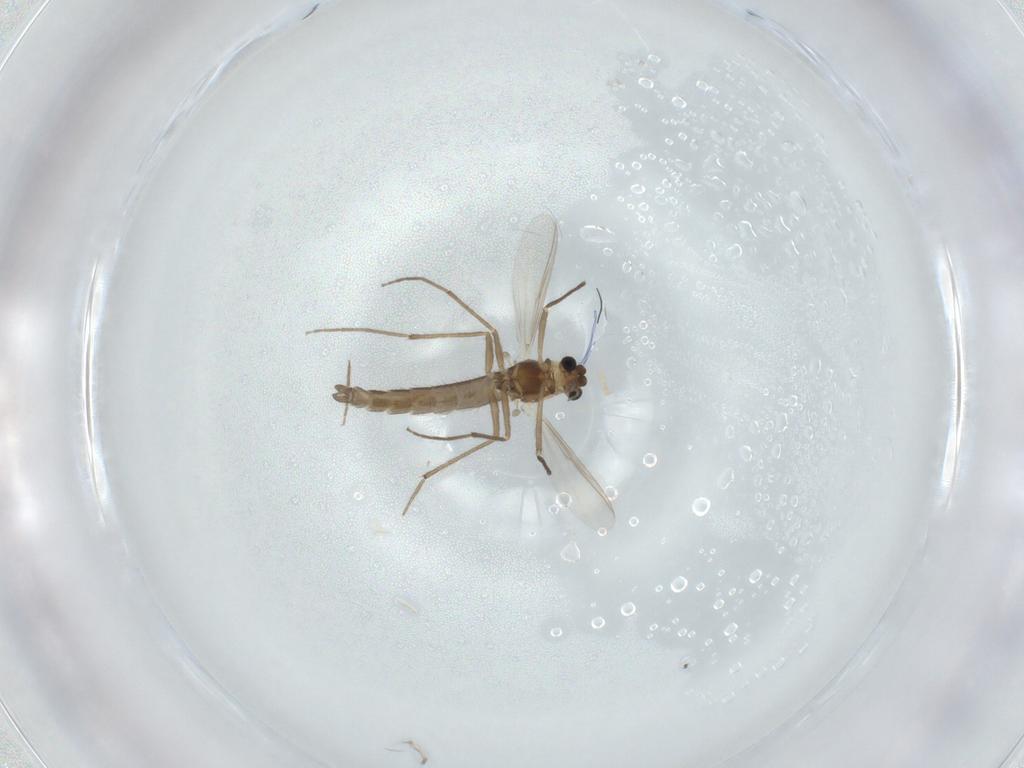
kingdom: Animalia
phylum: Arthropoda
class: Insecta
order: Diptera
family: Chironomidae
